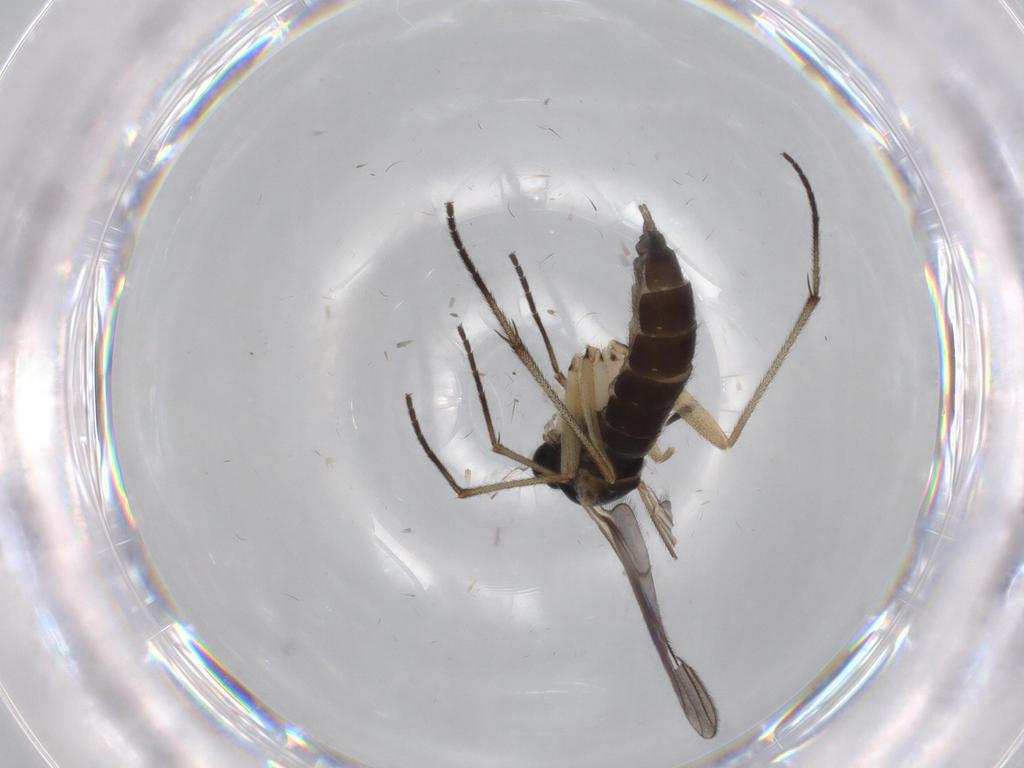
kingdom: Animalia
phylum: Arthropoda
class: Insecta
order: Diptera
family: Sciaridae
